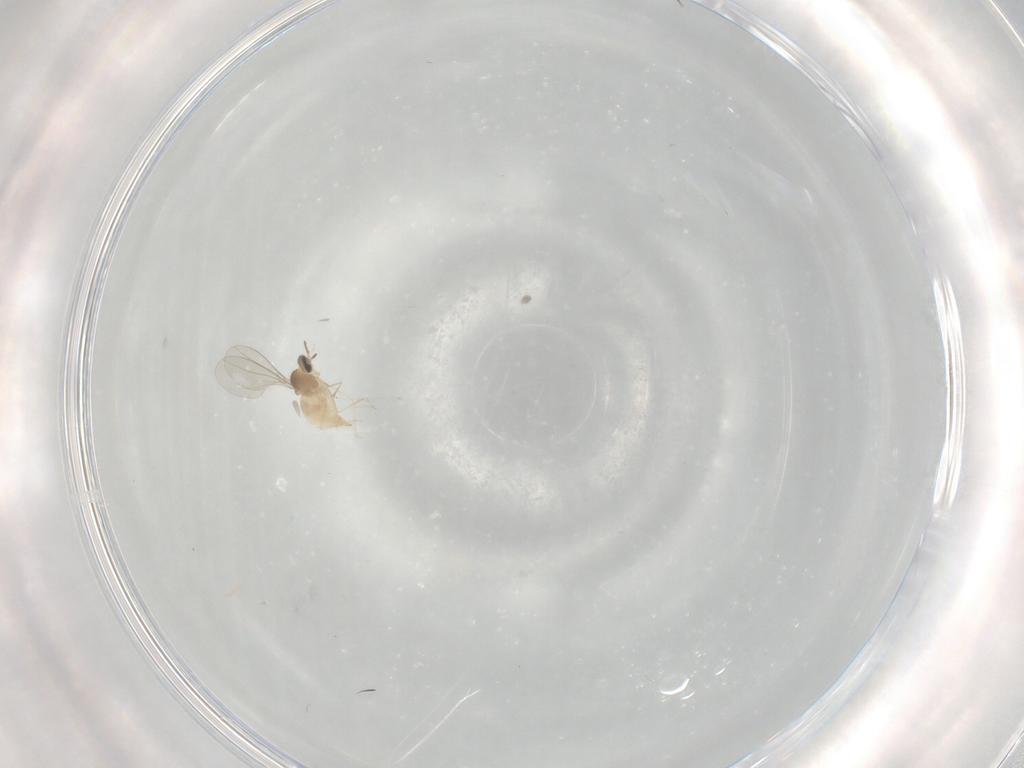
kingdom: Animalia
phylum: Arthropoda
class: Insecta
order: Diptera
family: Cecidomyiidae
